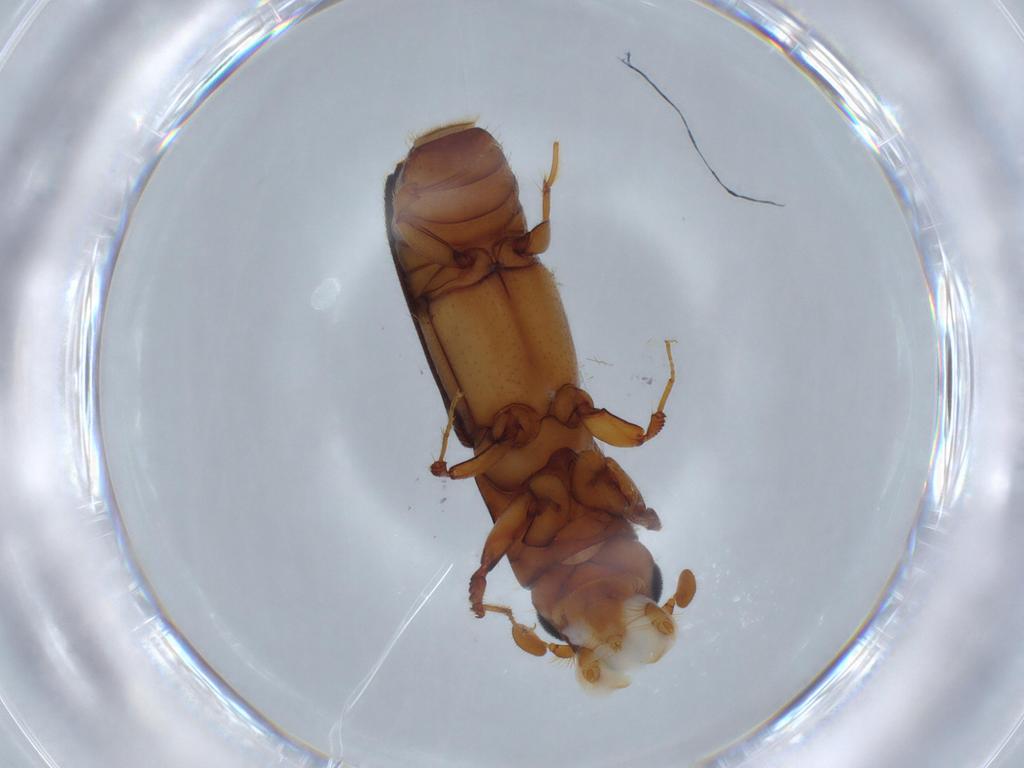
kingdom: Animalia
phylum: Arthropoda
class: Insecta
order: Coleoptera
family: Curculionidae
